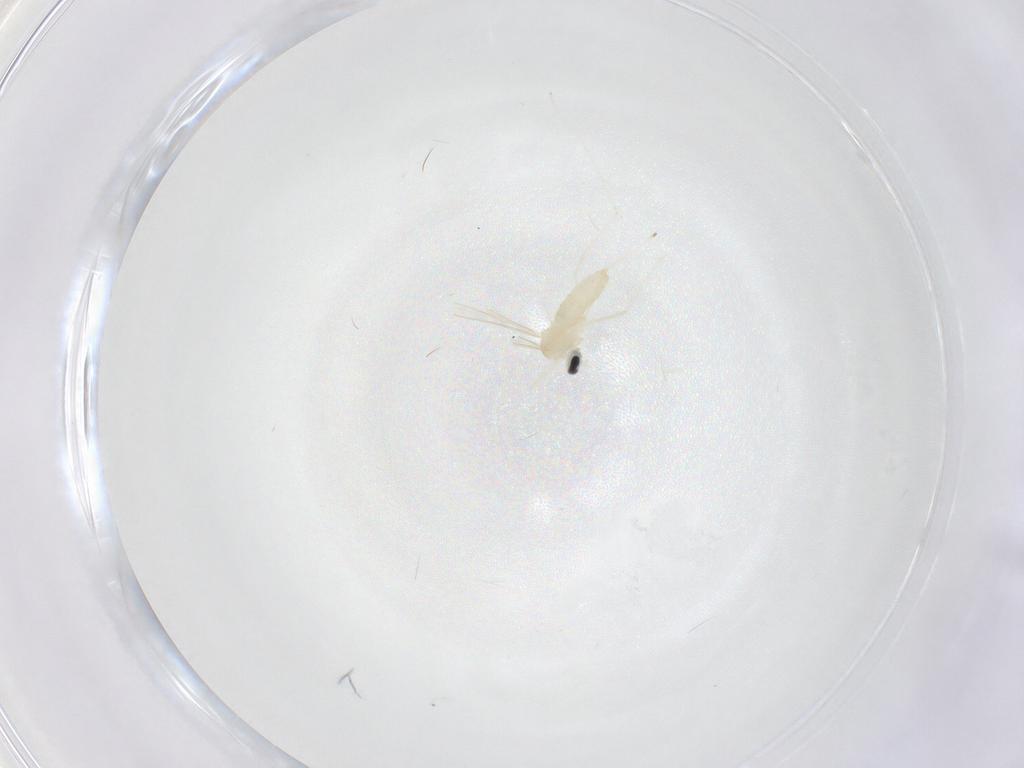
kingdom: Animalia
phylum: Arthropoda
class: Insecta
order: Diptera
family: Cecidomyiidae
